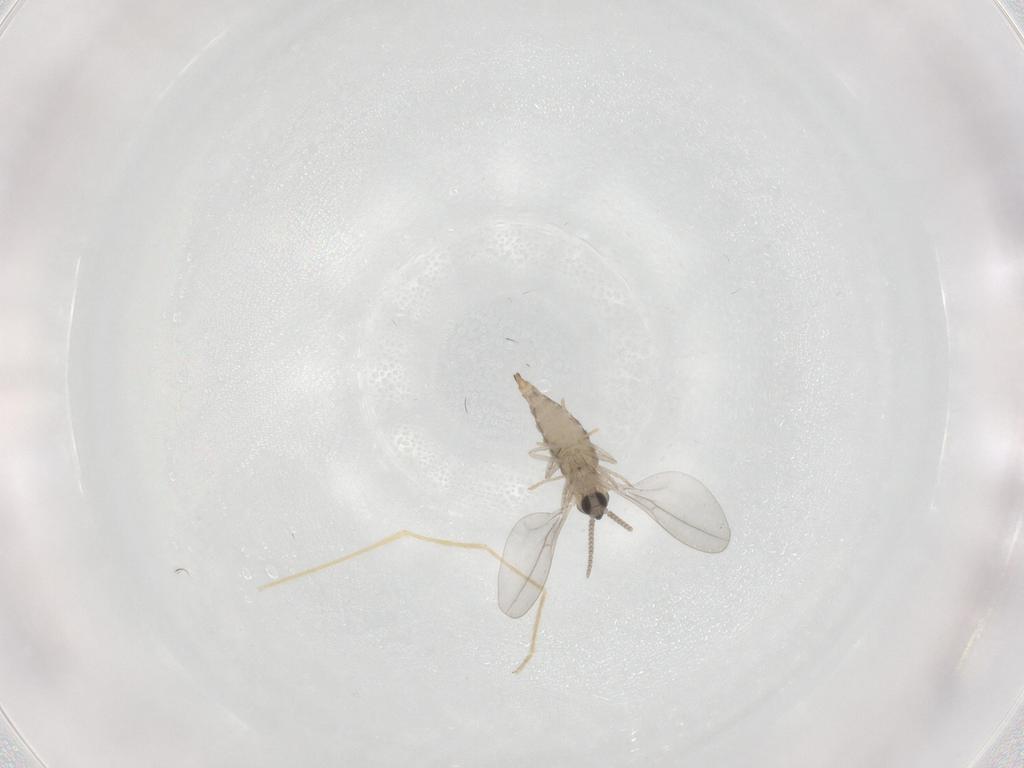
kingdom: Animalia
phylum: Arthropoda
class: Insecta
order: Diptera
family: Cecidomyiidae
